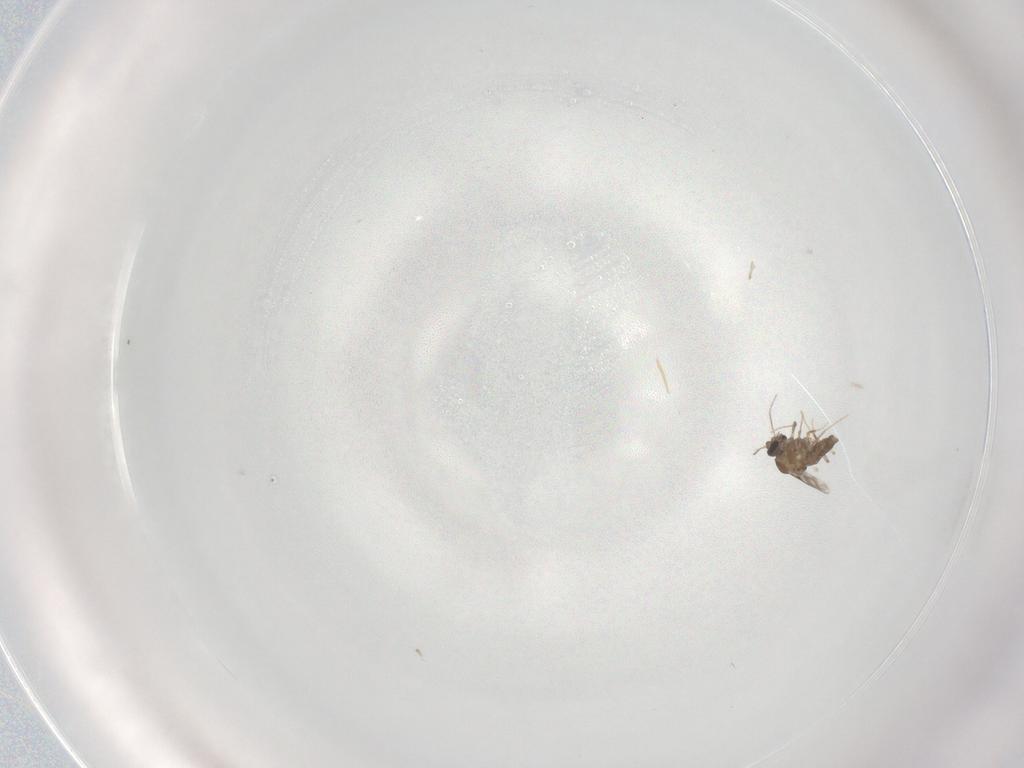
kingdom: Animalia
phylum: Arthropoda
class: Insecta
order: Diptera
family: Ceratopogonidae
